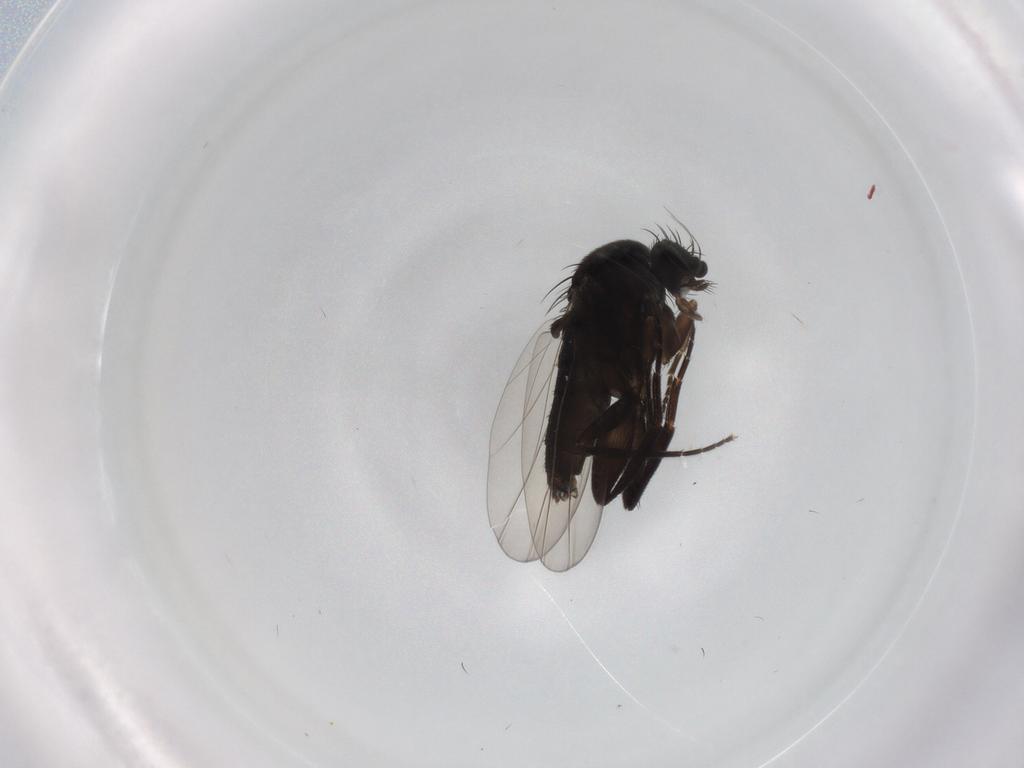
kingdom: Animalia
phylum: Arthropoda
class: Insecta
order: Diptera
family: Phoridae
